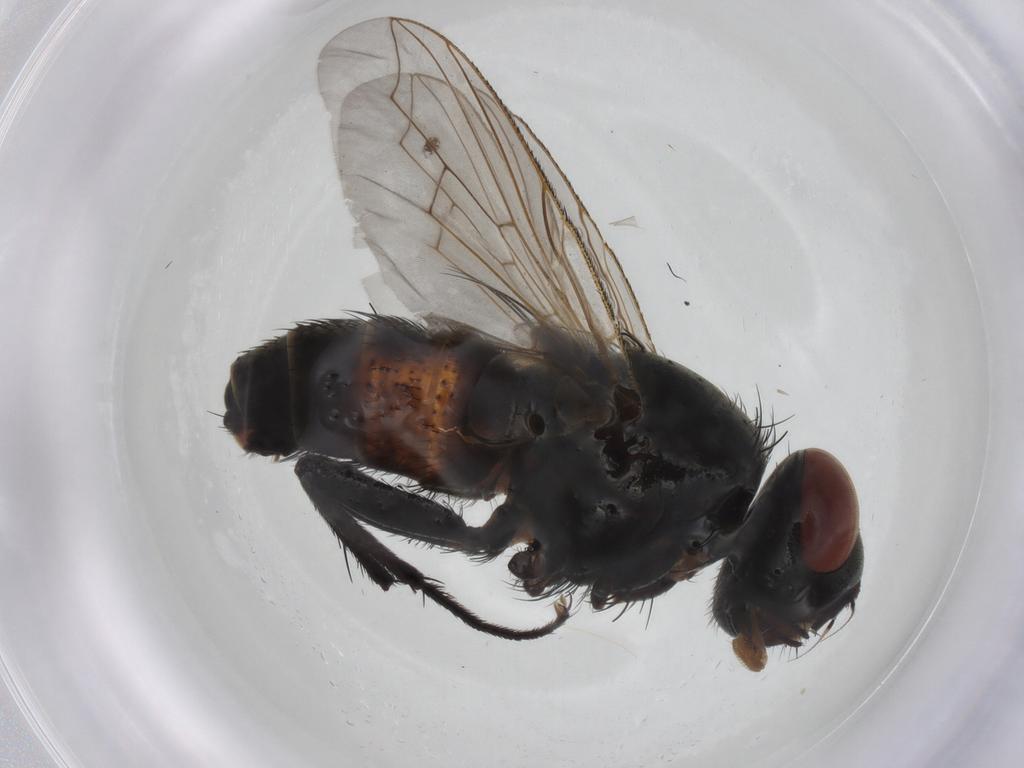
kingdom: Animalia
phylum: Arthropoda
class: Insecta
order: Diptera
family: Sarcophagidae
